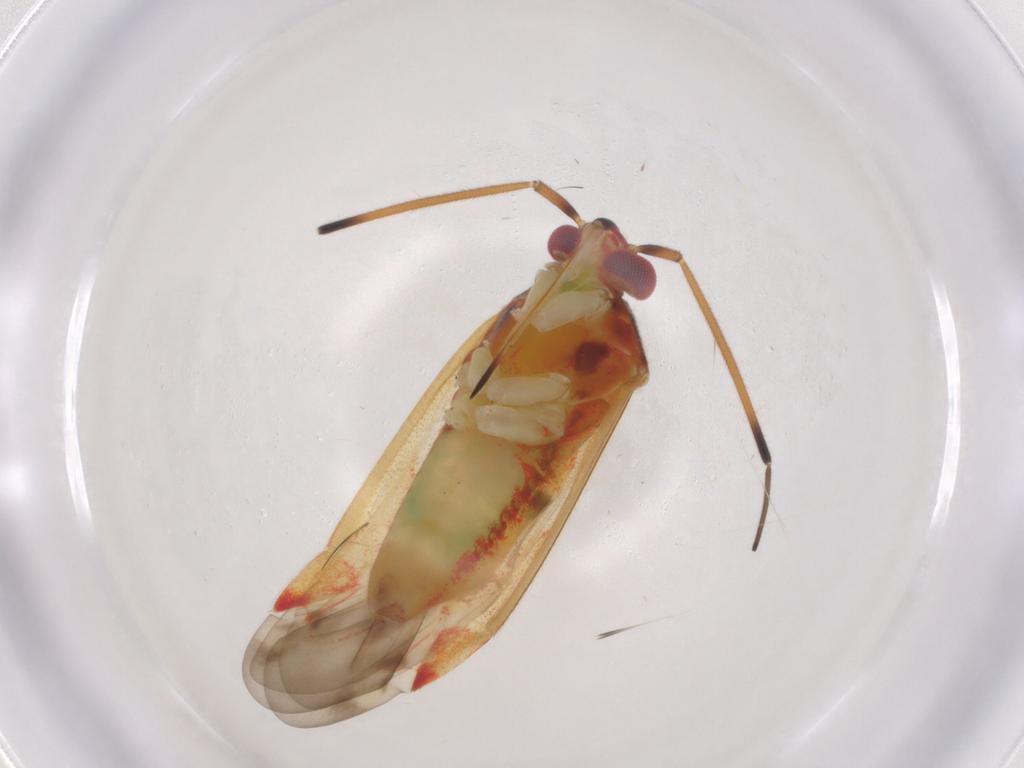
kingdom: Animalia
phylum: Arthropoda
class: Insecta
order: Hemiptera
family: Miridae
